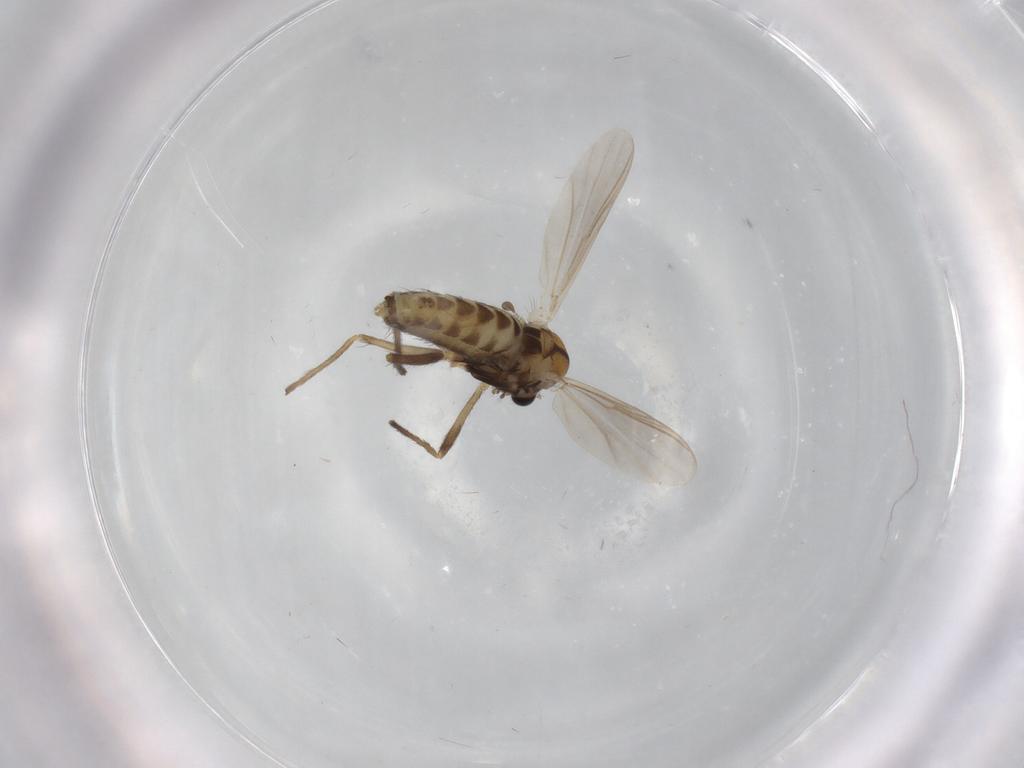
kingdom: Animalia
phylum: Arthropoda
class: Insecta
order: Diptera
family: Chironomidae
